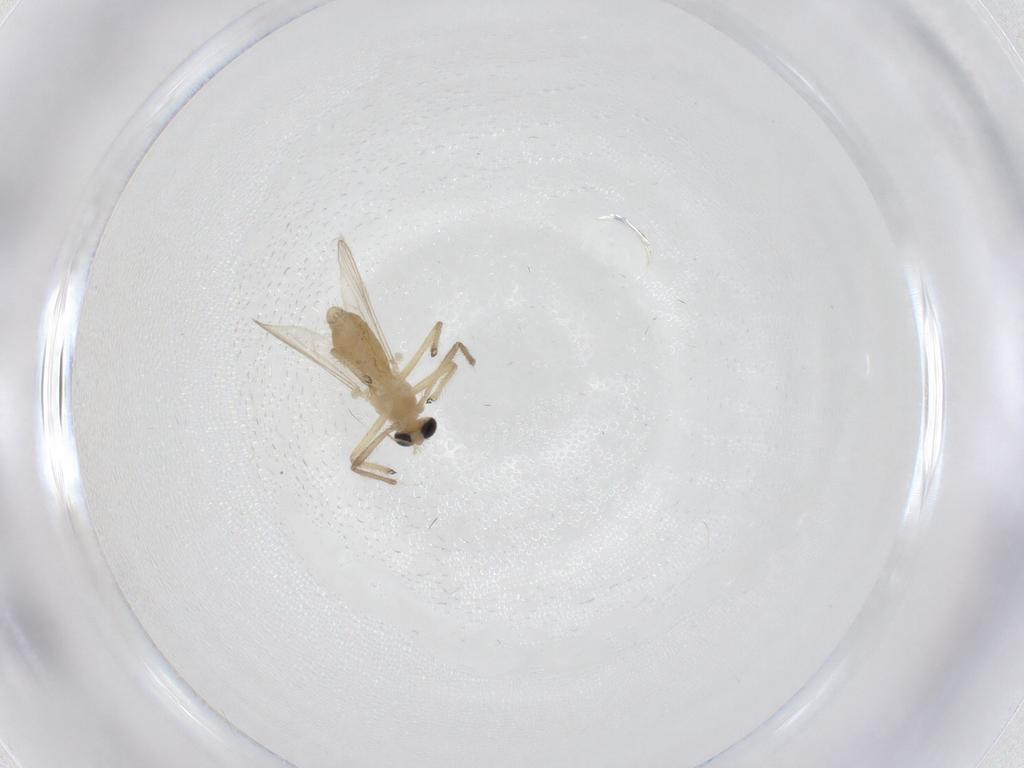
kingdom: Animalia
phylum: Arthropoda
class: Insecta
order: Diptera
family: Chironomidae
